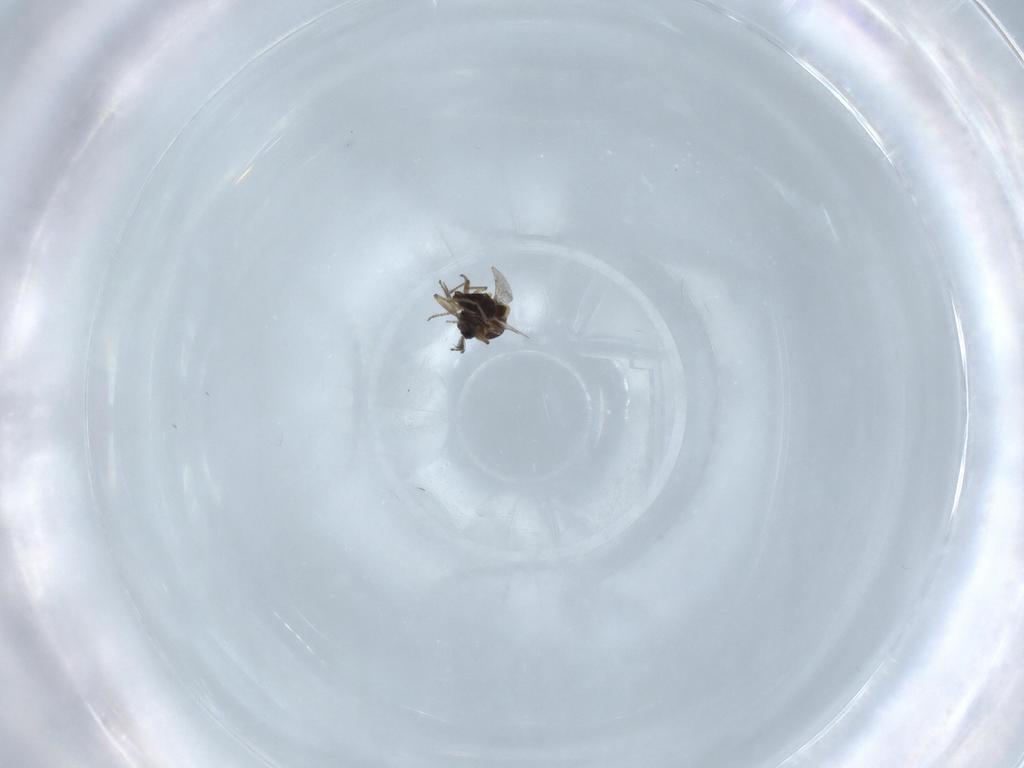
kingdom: Animalia
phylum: Arthropoda
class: Insecta
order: Diptera
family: Ceratopogonidae
